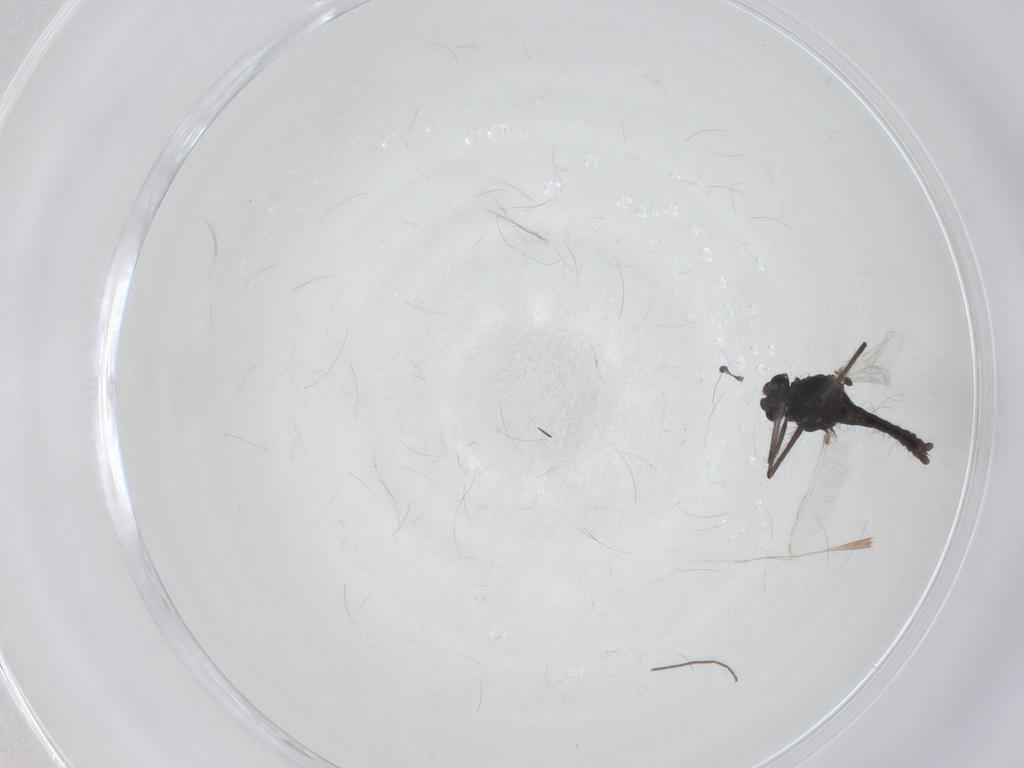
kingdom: Animalia
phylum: Arthropoda
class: Insecta
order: Diptera
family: Chironomidae
